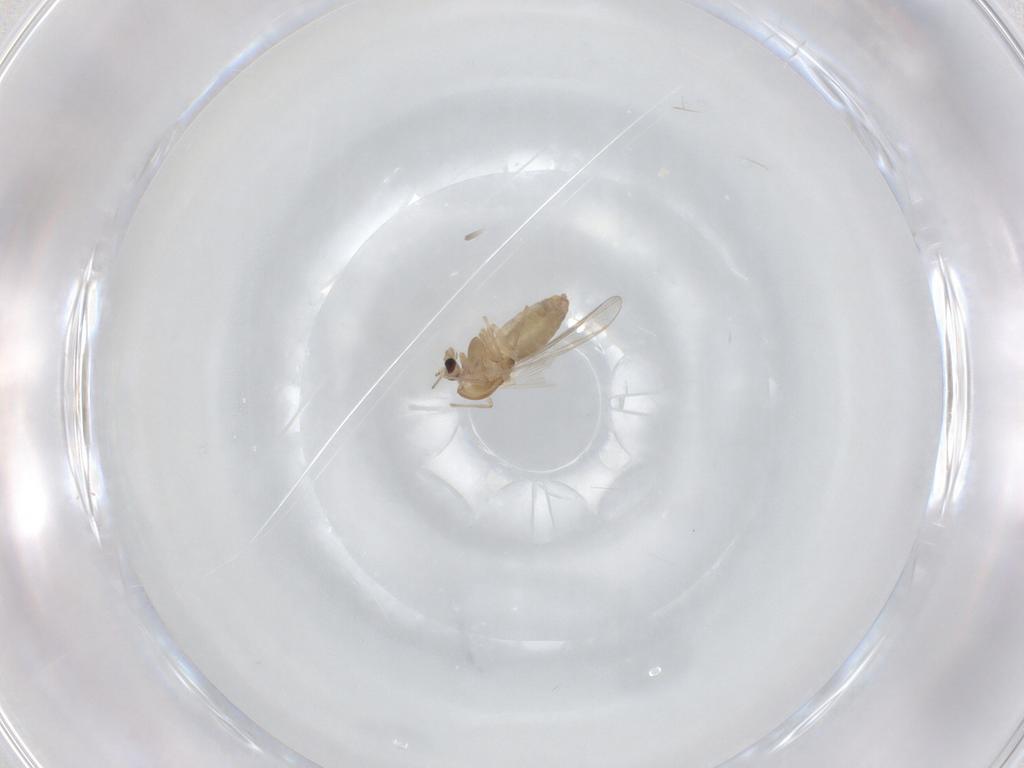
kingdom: Animalia
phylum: Arthropoda
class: Insecta
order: Diptera
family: Chironomidae
